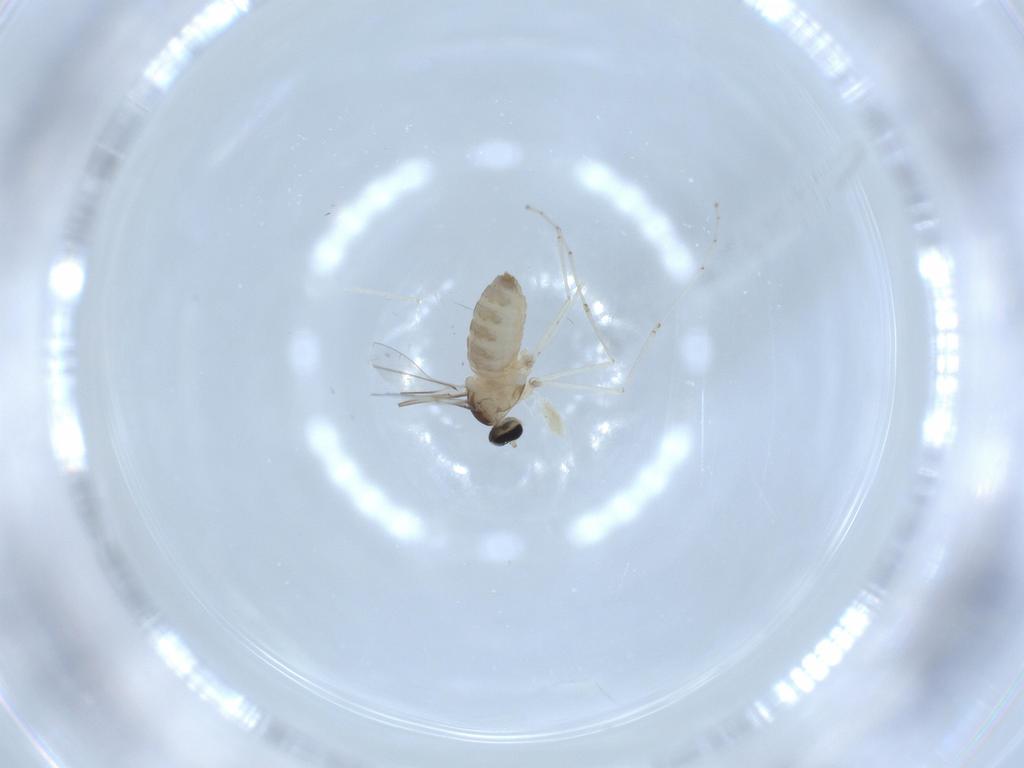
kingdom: Animalia
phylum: Arthropoda
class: Insecta
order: Diptera
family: Cecidomyiidae
